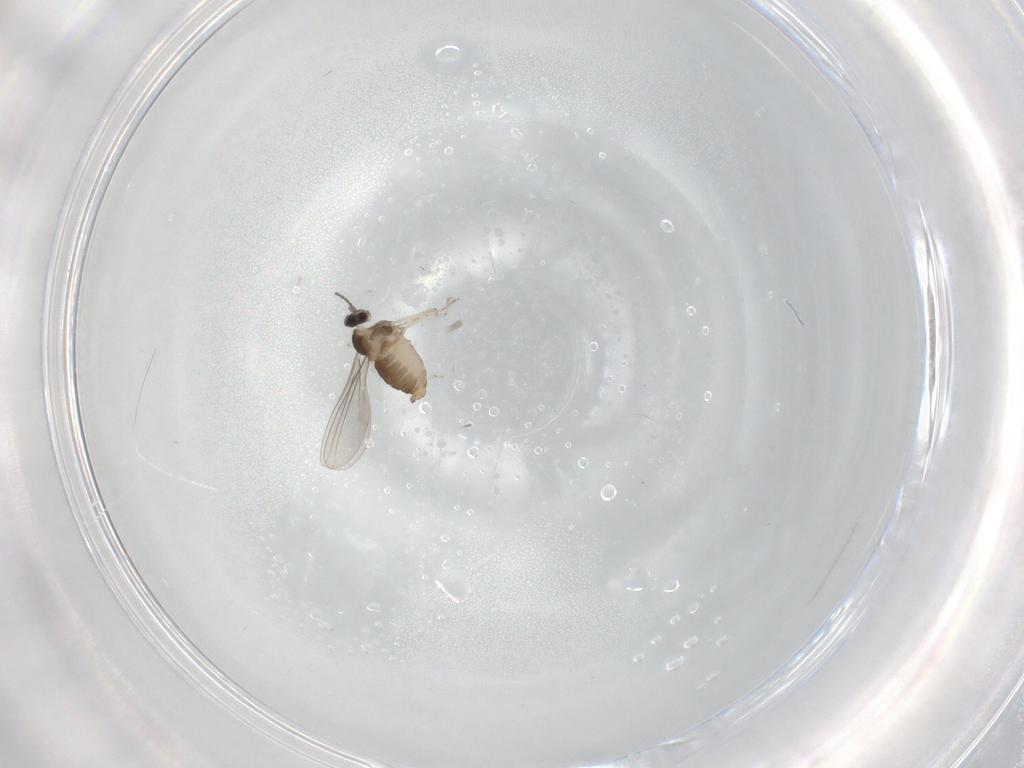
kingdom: Animalia
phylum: Arthropoda
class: Insecta
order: Diptera
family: Cecidomyiidae
